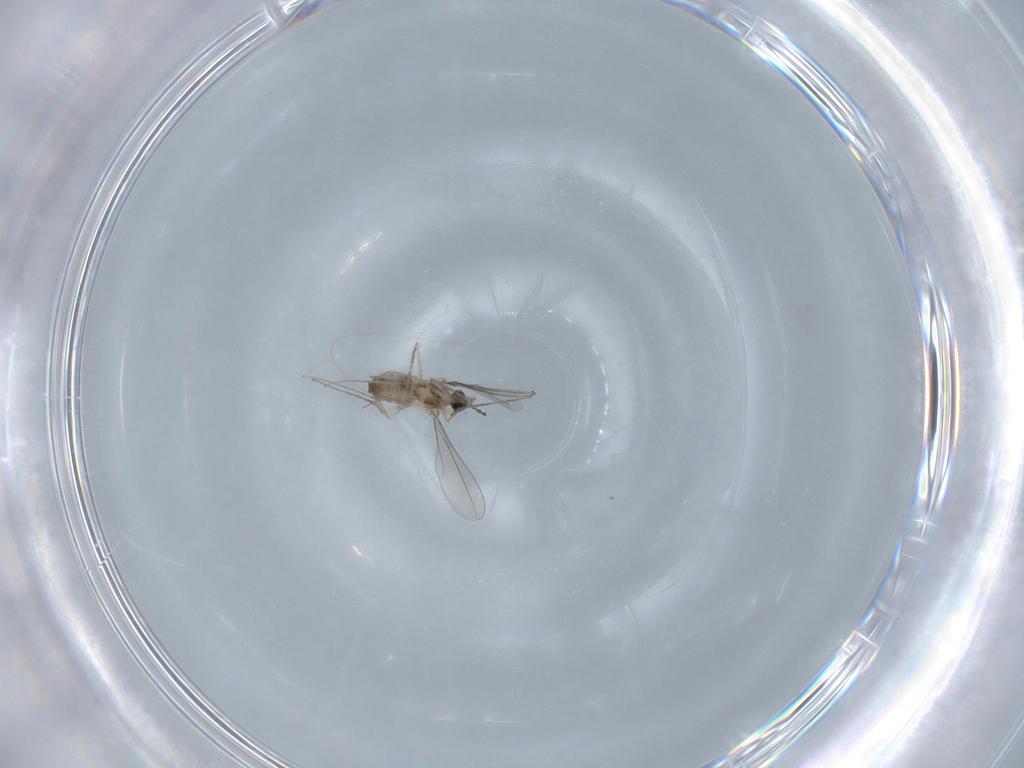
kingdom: Animalia
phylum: Arthropoda
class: Insecta
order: Diptera
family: Cecidomyiidae
